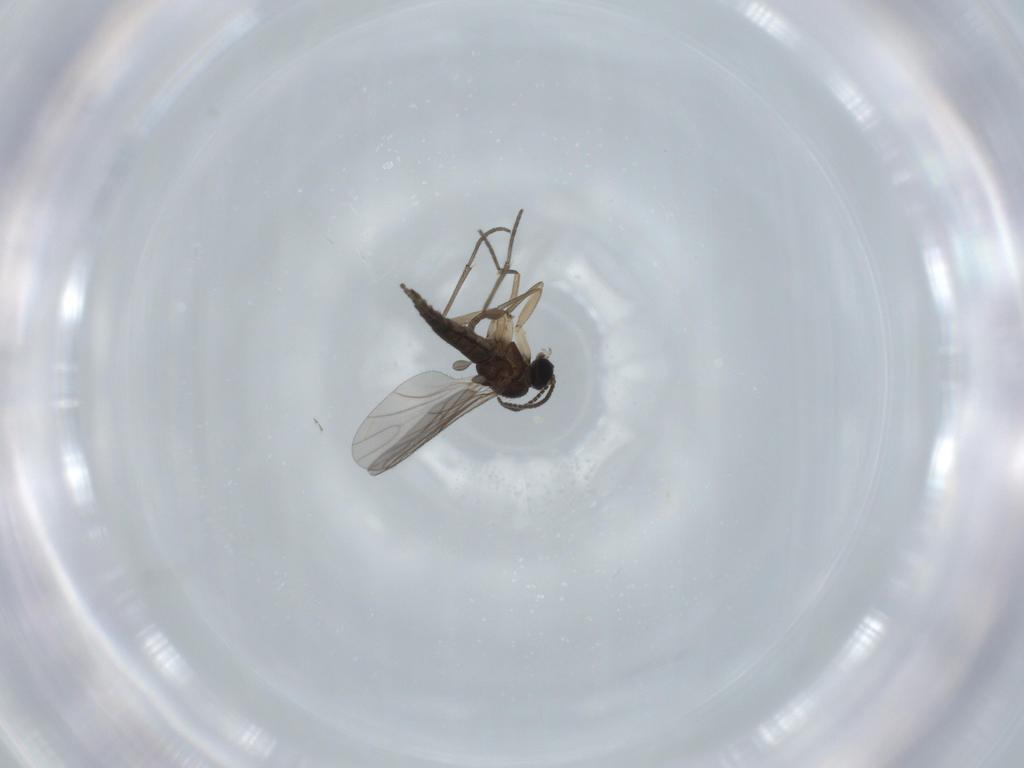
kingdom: Animalia
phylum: Arthropoda
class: Insecta
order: Diptera
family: Sciaridae
